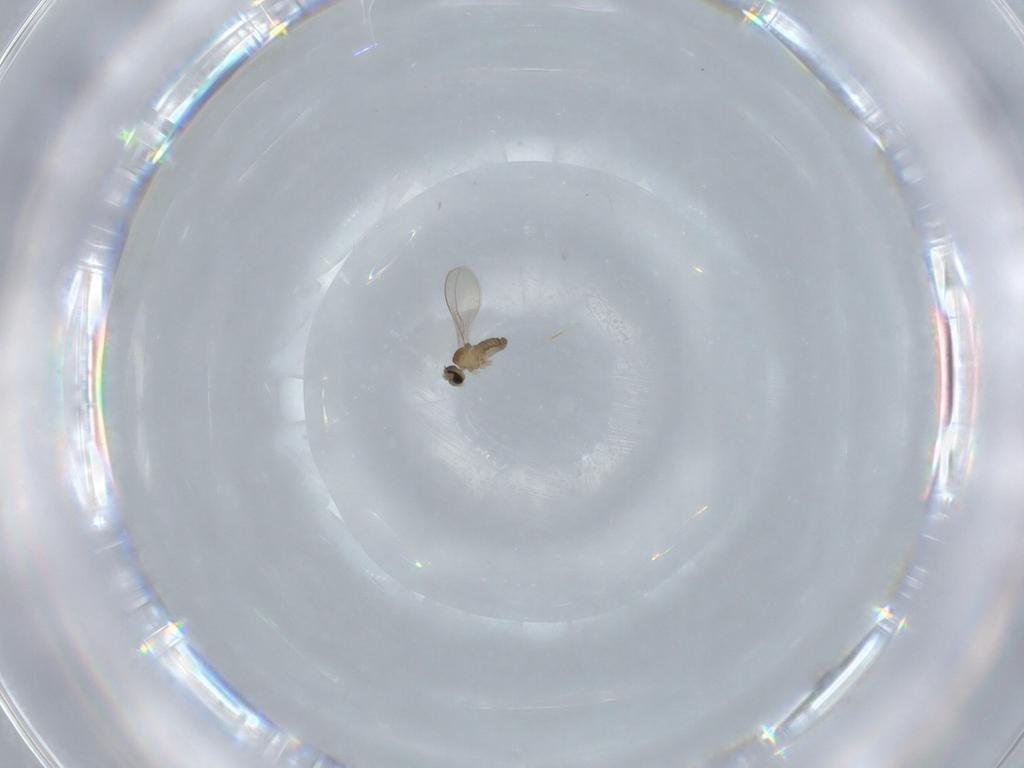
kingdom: Animalia
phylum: Arthropoda
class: Insecta
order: Diptera
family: Cecidomyiidae
